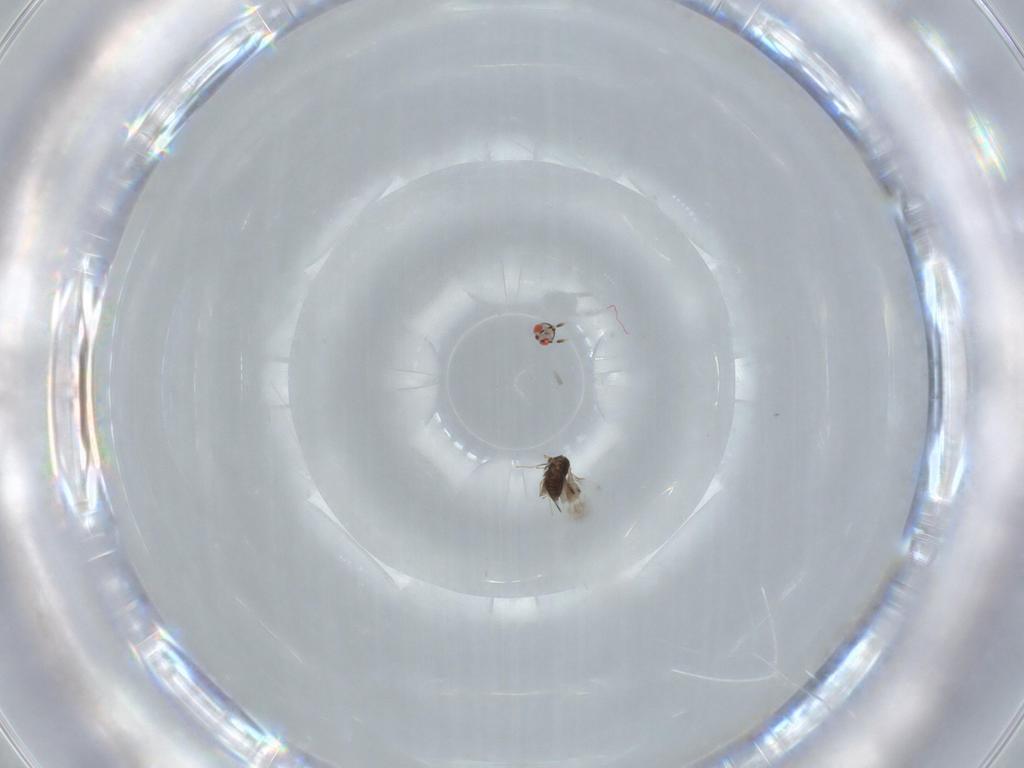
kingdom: Animalia
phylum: Arthropoda
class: Insecta
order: Hymenoptera
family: Azotidae
